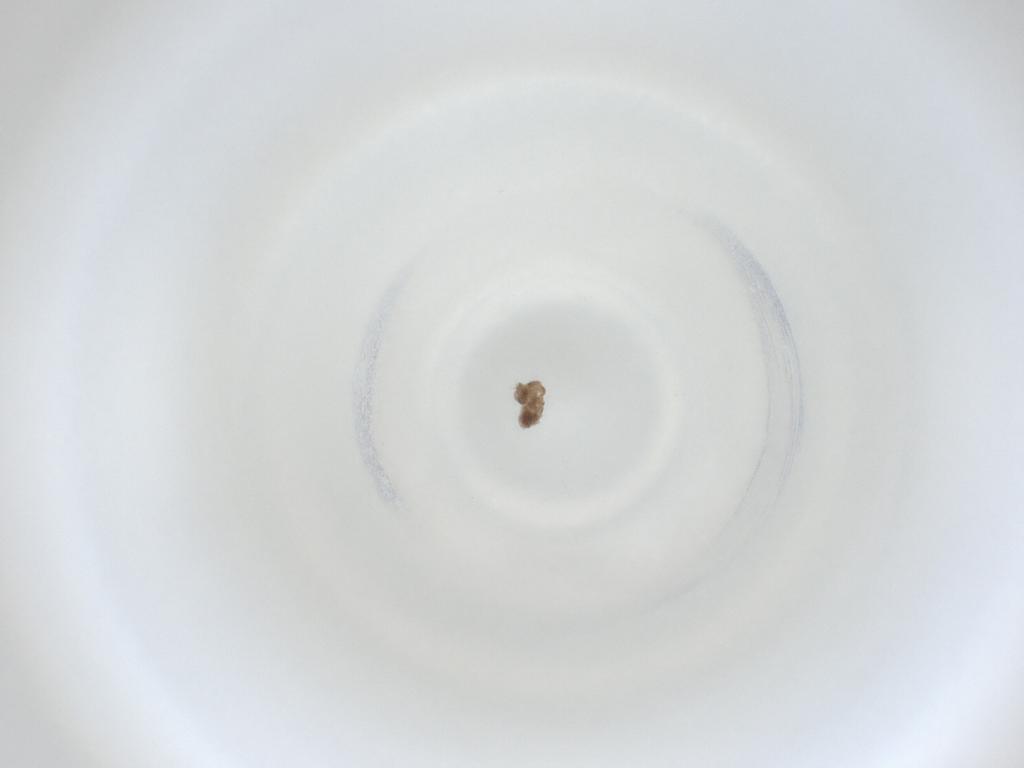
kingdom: Animalia
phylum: Arthropoda
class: Insecta
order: Diptera
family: Cecidomyiidae
